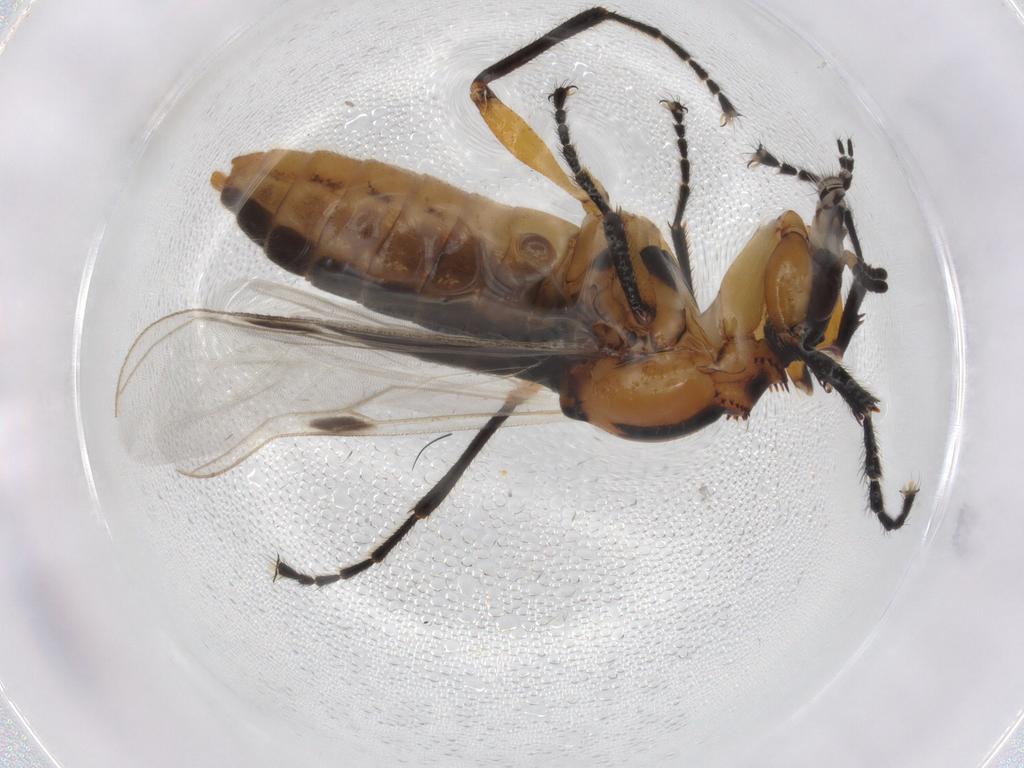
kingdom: Animalia
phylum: Arthropoda
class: Insecta
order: Diptera
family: Bibionidae
